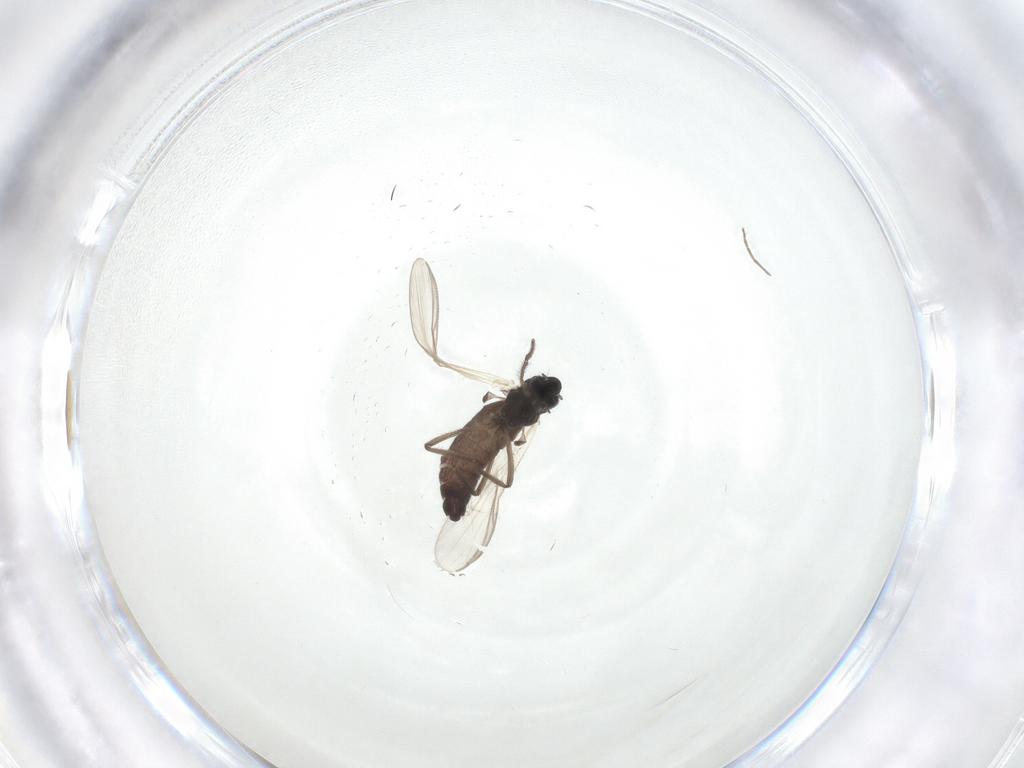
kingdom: Animalia
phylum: Arthropoda
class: Insecta
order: Diptera
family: Chironomidae
